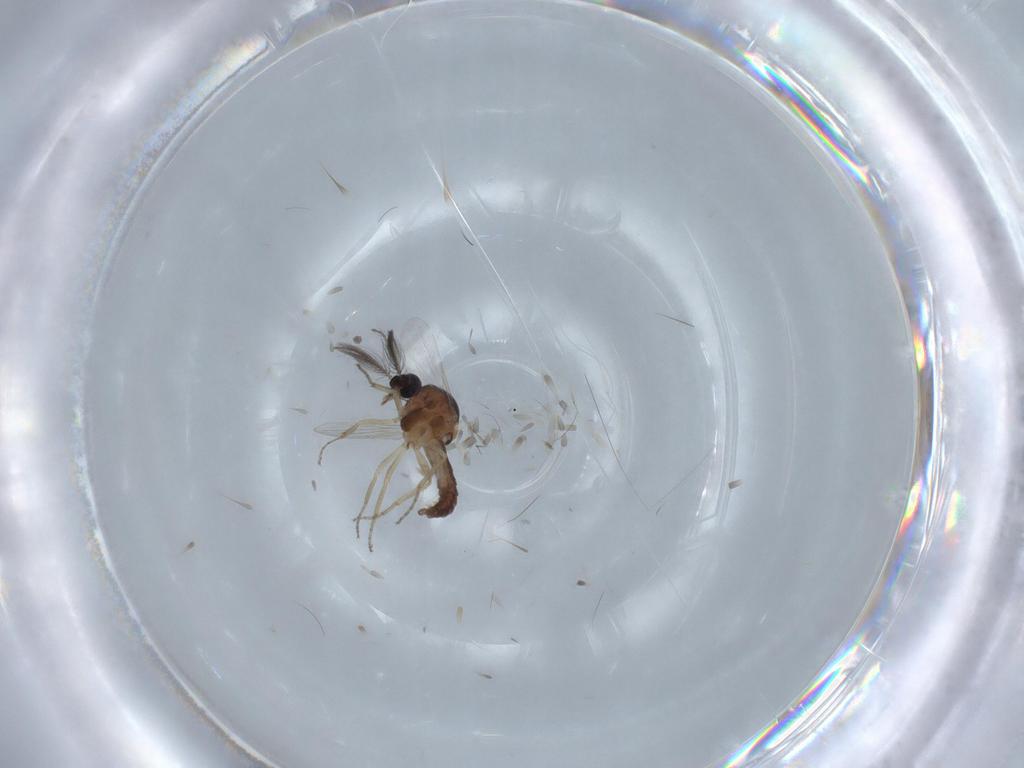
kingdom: Animalia
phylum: Arthropoda
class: Insecta
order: Diptera
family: Ceratopogonidae
